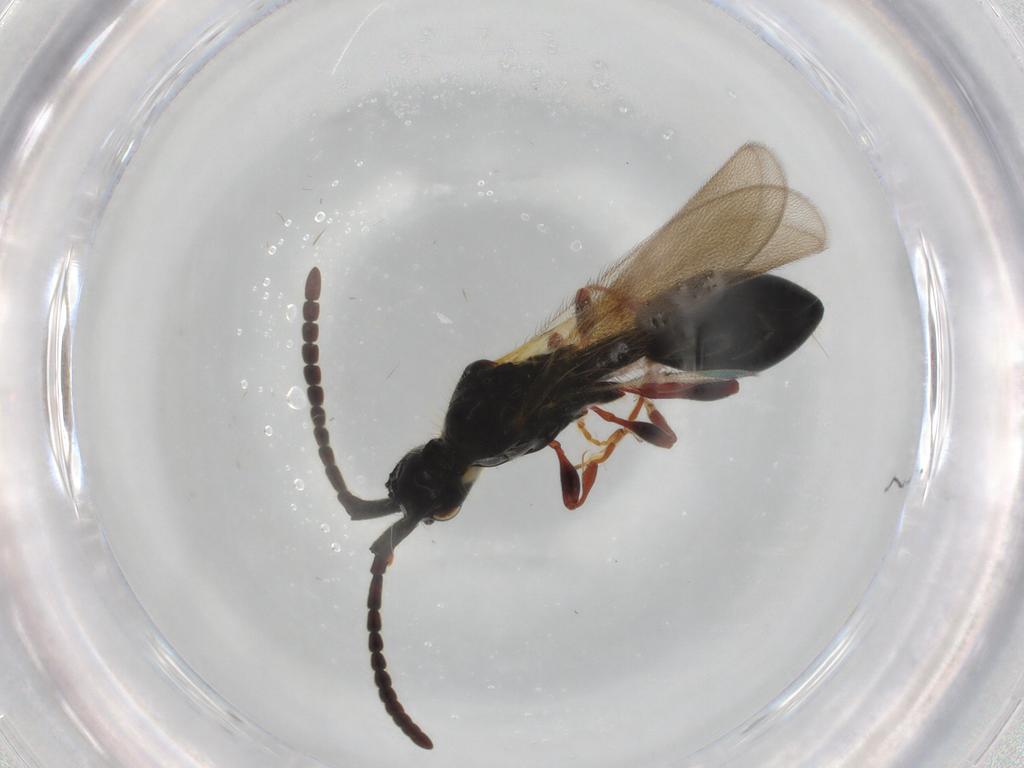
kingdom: Animalia
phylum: Arthropoda
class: Insecta
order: Hymenoptera
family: Diapriidae
